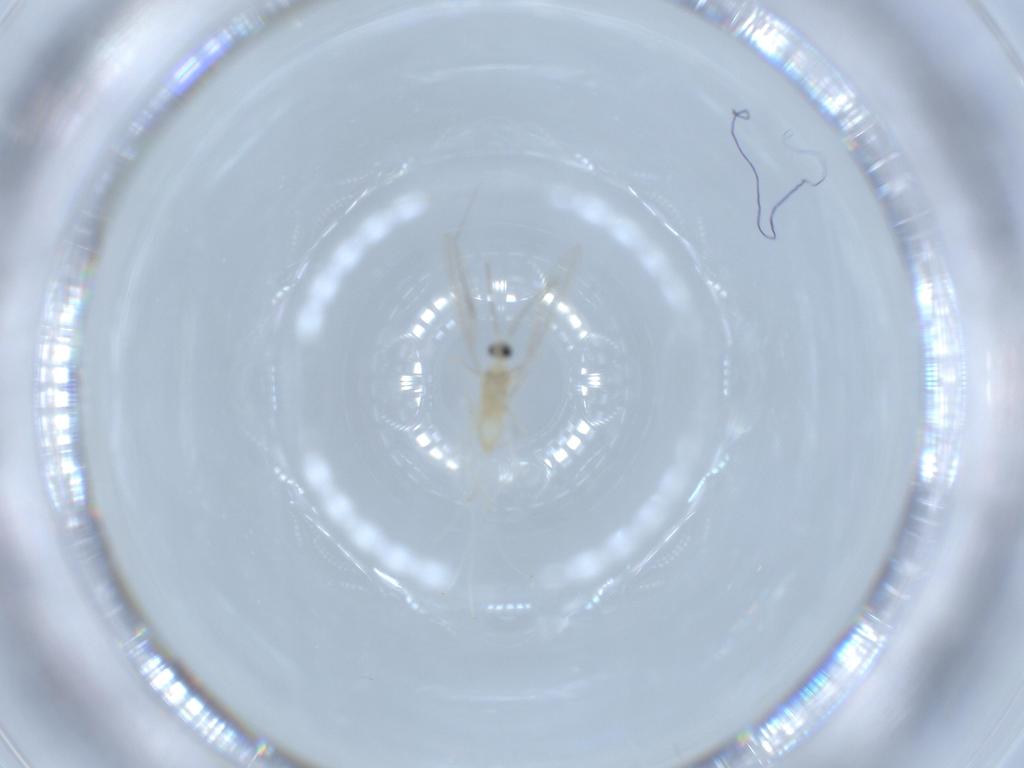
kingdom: Animalia
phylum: Arthropoda
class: Insecta
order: Diptera
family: Cecidomyiidae
